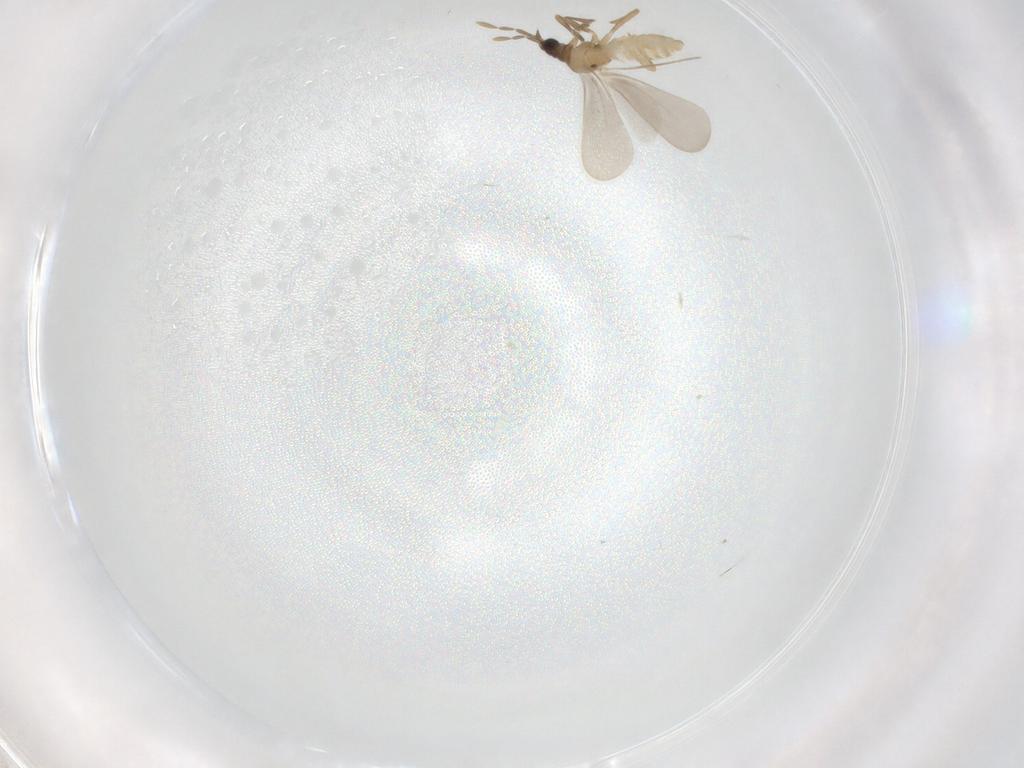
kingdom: Animalia
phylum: Arthropoda
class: Insecta
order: Hemiptera
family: Enicocephalidae
